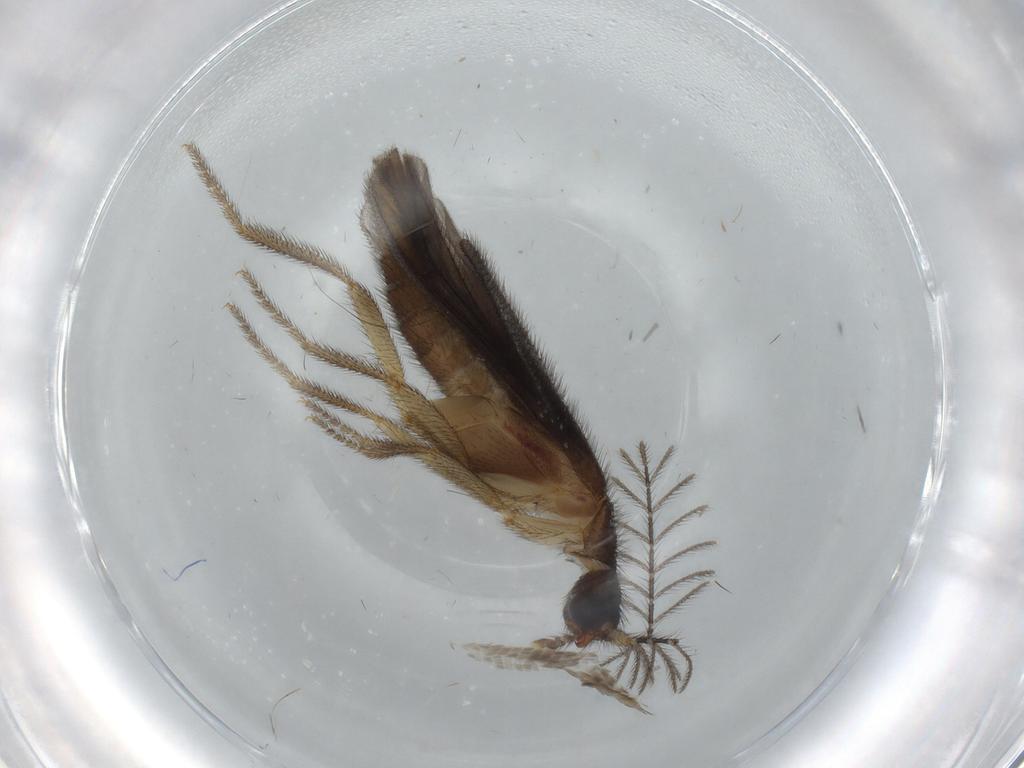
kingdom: Animalia
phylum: Arthropoda
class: Insecta
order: Coleoptera
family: Phengodidae
